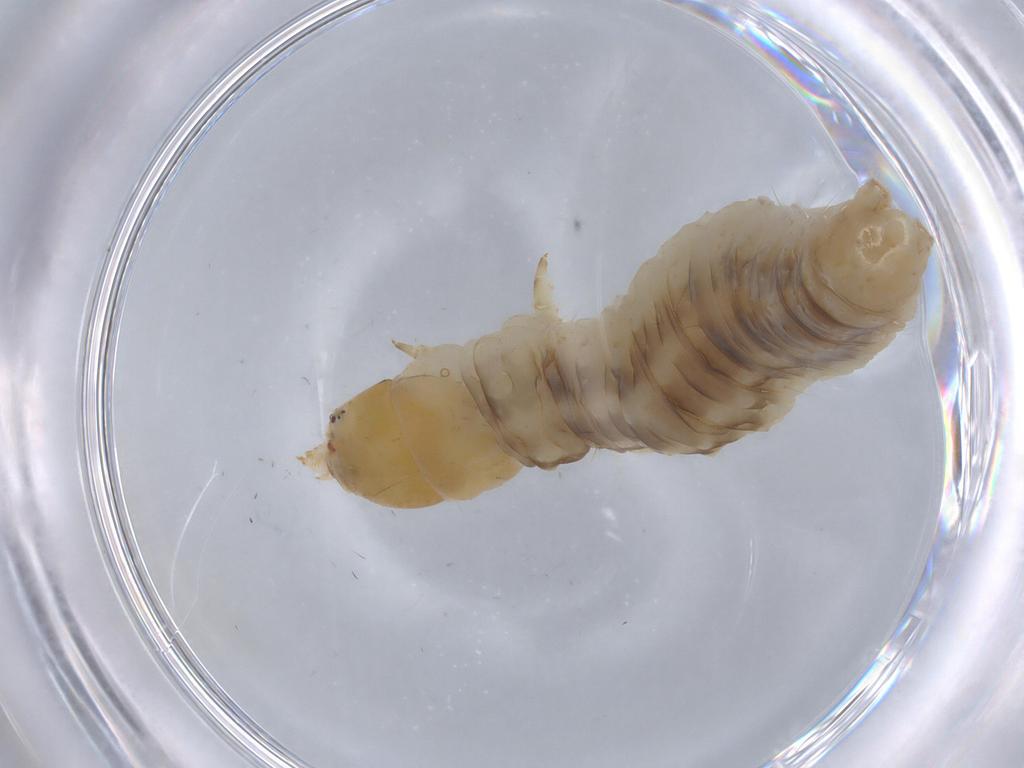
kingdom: Animalia
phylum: Arthropoda
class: Insecta
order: Lepidoptera
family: Tortricidae
